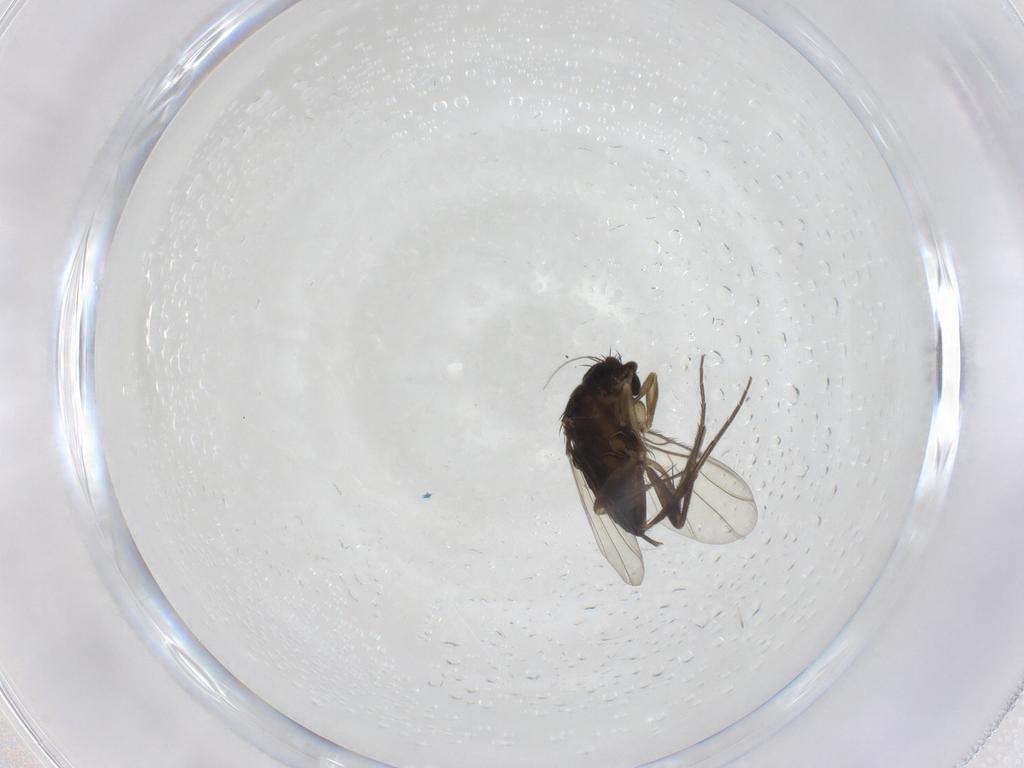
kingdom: Animalia
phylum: Arthropoda
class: Insecta
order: Diptera
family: Phoridae
